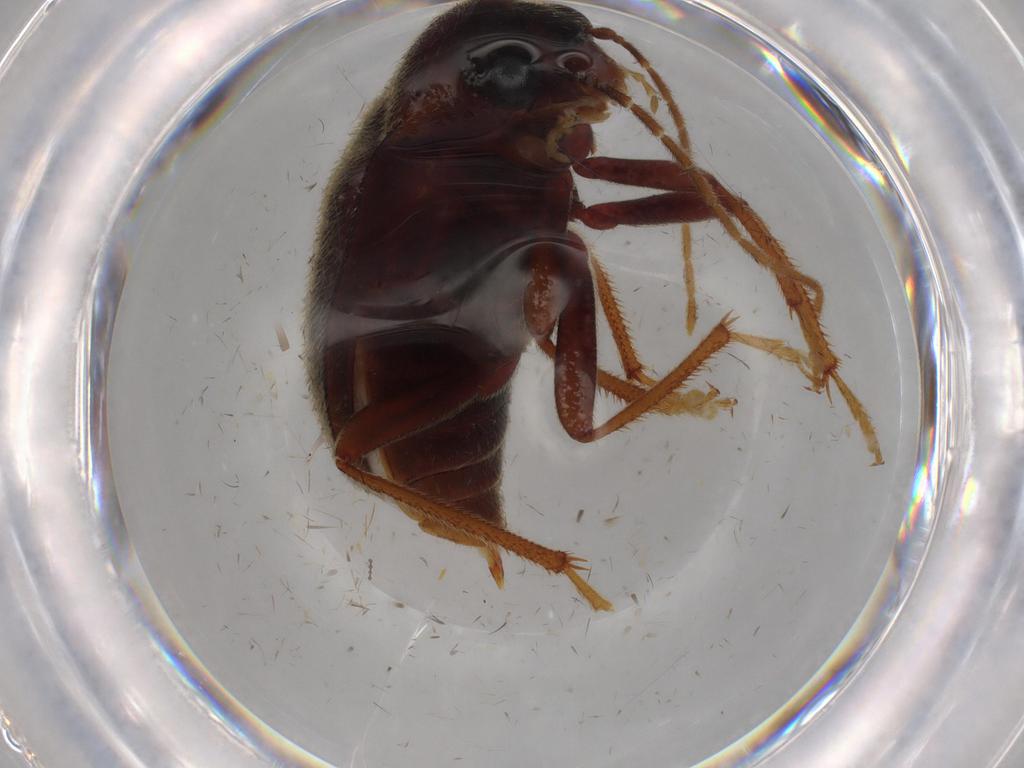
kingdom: Animalia
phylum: Arthropoda
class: Insecta
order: Coleoptera
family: Ptilodactylidae
